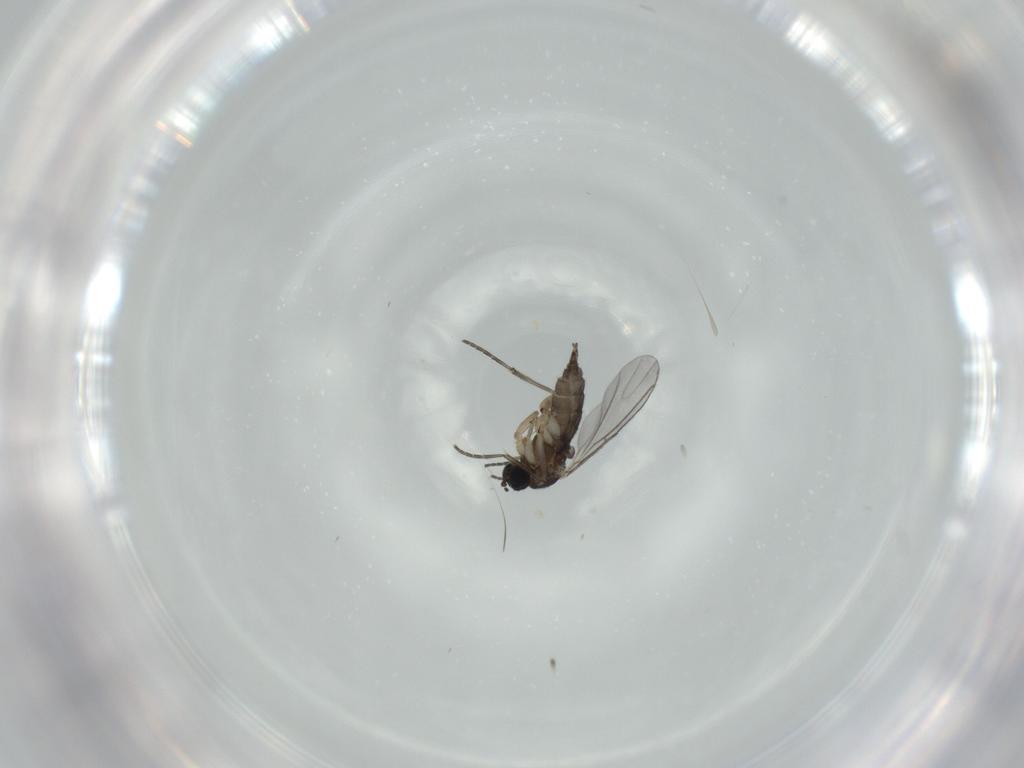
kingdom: Animalia
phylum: Arthropoda
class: Insecta
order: Diptera
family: Sciaridae
